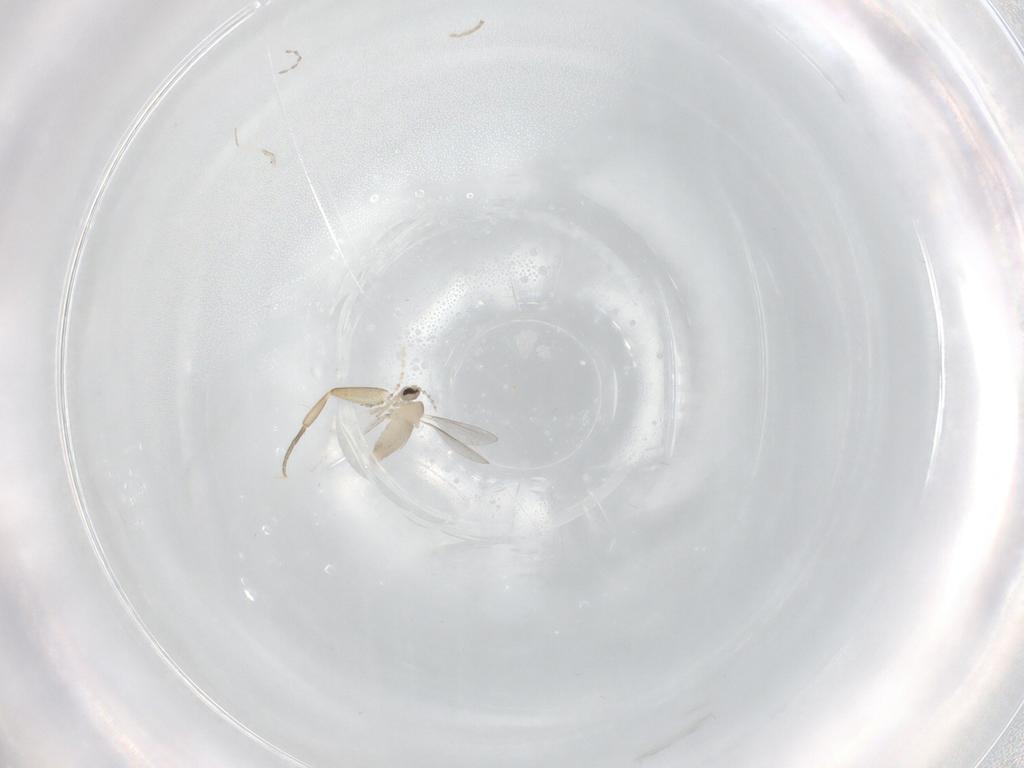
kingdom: Animalia
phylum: Arthropoda
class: Insecta
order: Diptera
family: Cecidomyiidae
